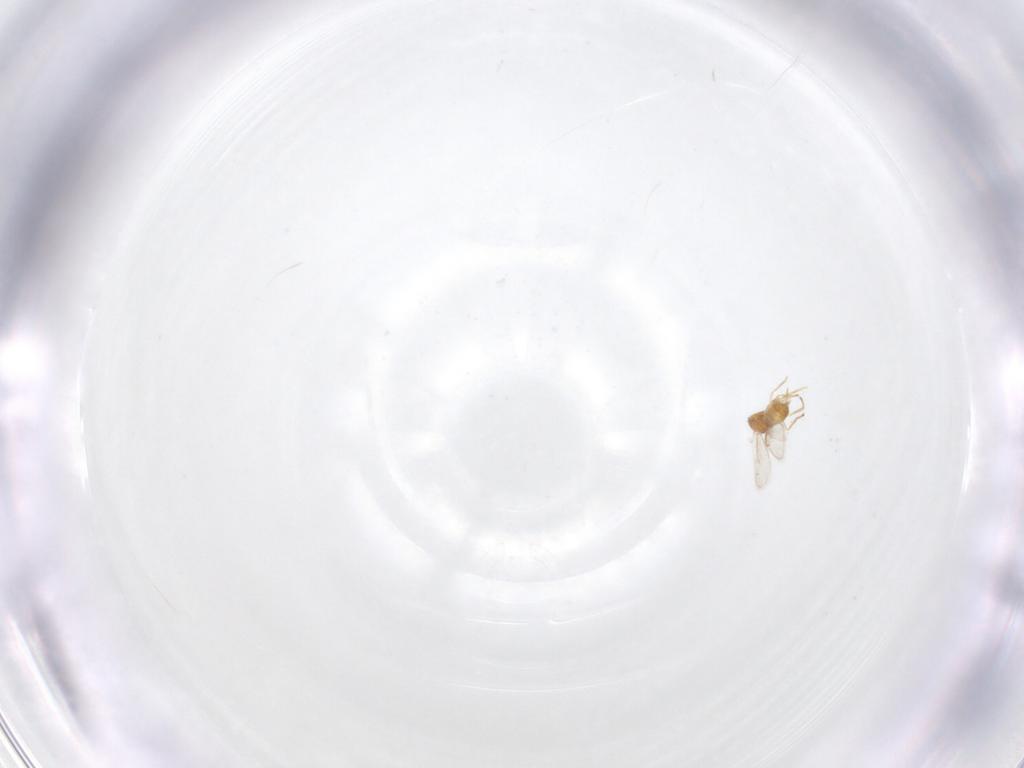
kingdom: Animalia
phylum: Arthropoda
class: Insecta
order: Hymenoptera
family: Eulophidae
